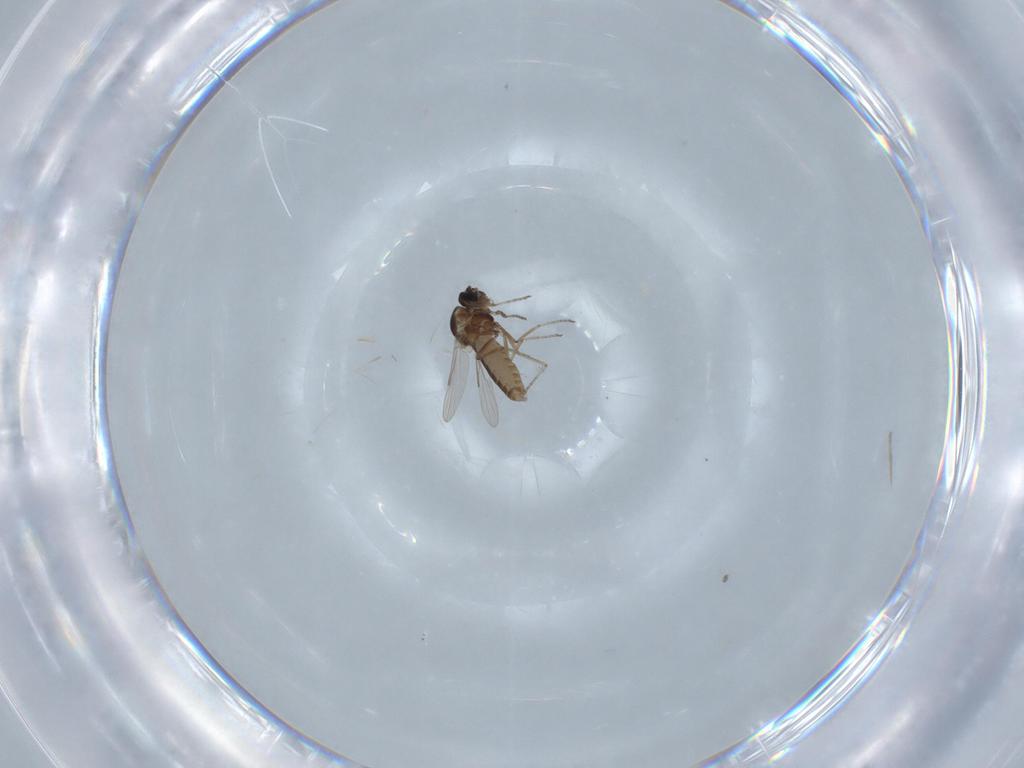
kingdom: Animalia
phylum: Arthropoda
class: Insecta
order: Diptera
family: Ceratopogonidae
